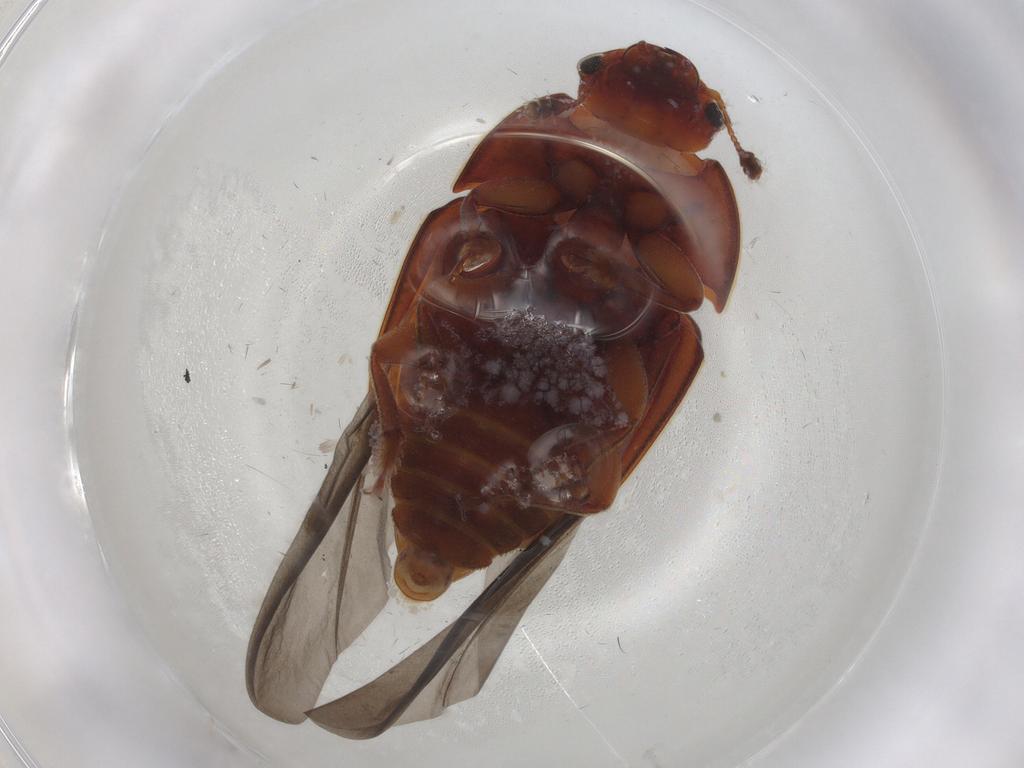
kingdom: Animalia
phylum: Arthropoda
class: Insecta
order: Coleoptera
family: Nitidulidae
